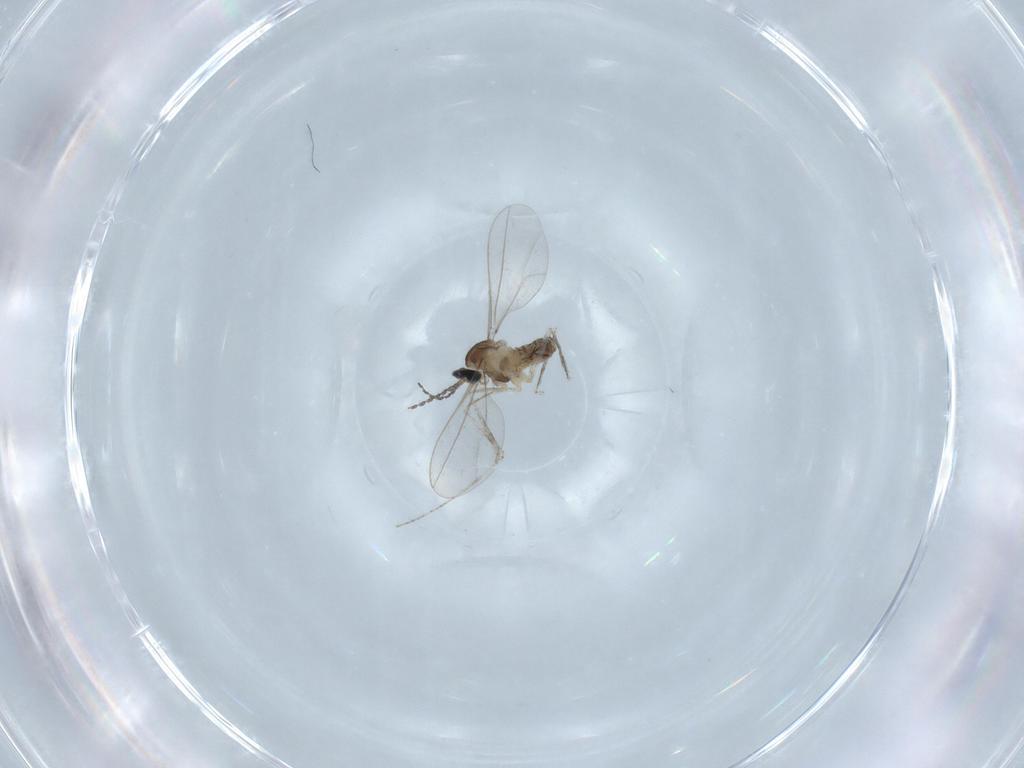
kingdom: Animalia
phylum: Arthropoda
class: Insecta
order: Diptera
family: Cecidomyiidae
